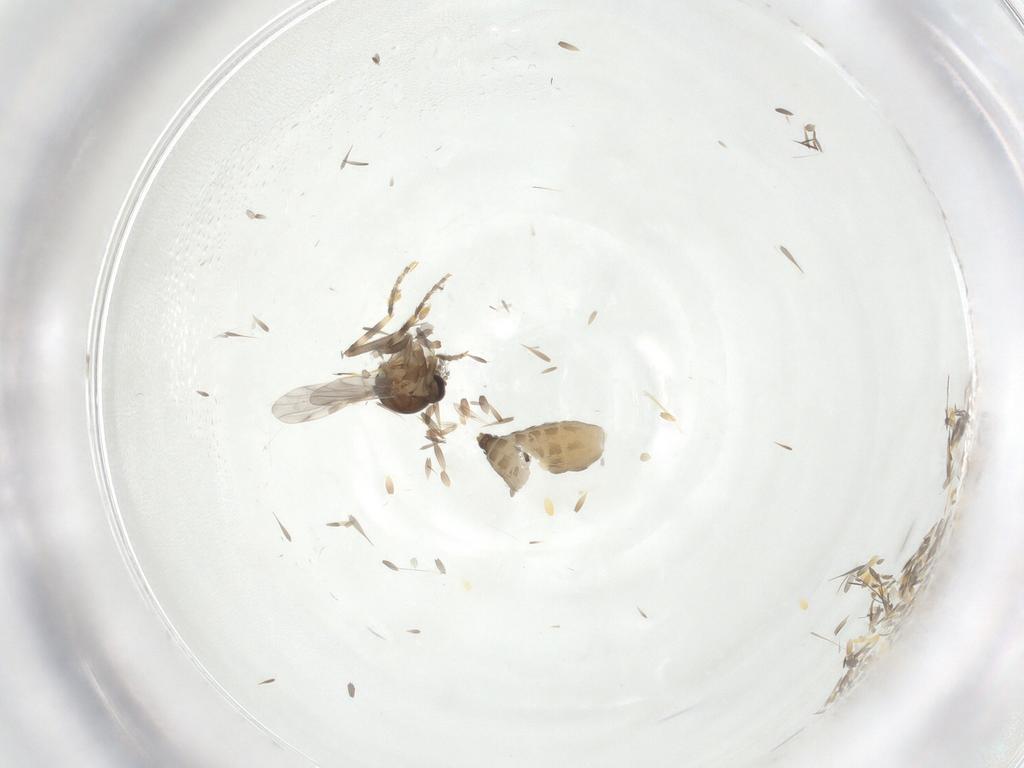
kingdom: Animalia
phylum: Arthropoda
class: Insecta
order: Diptera
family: Ceratopogonidae
